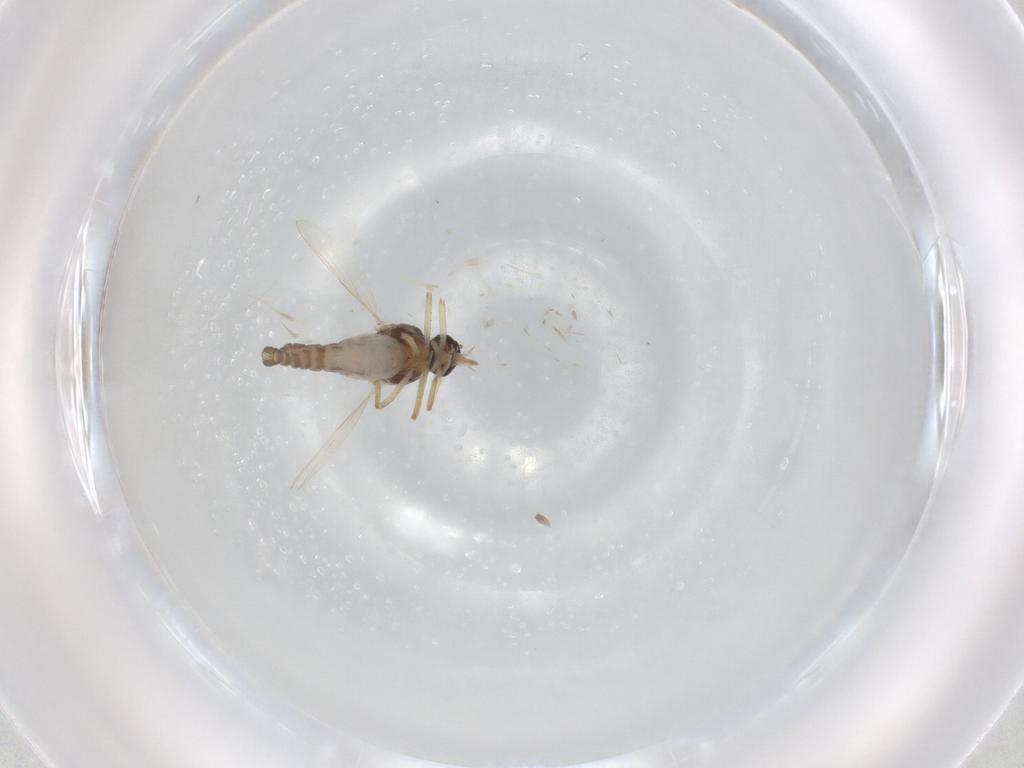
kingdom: Animalia
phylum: Arthropoda
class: Insecta
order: Diptera
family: Ceratopogonidae
